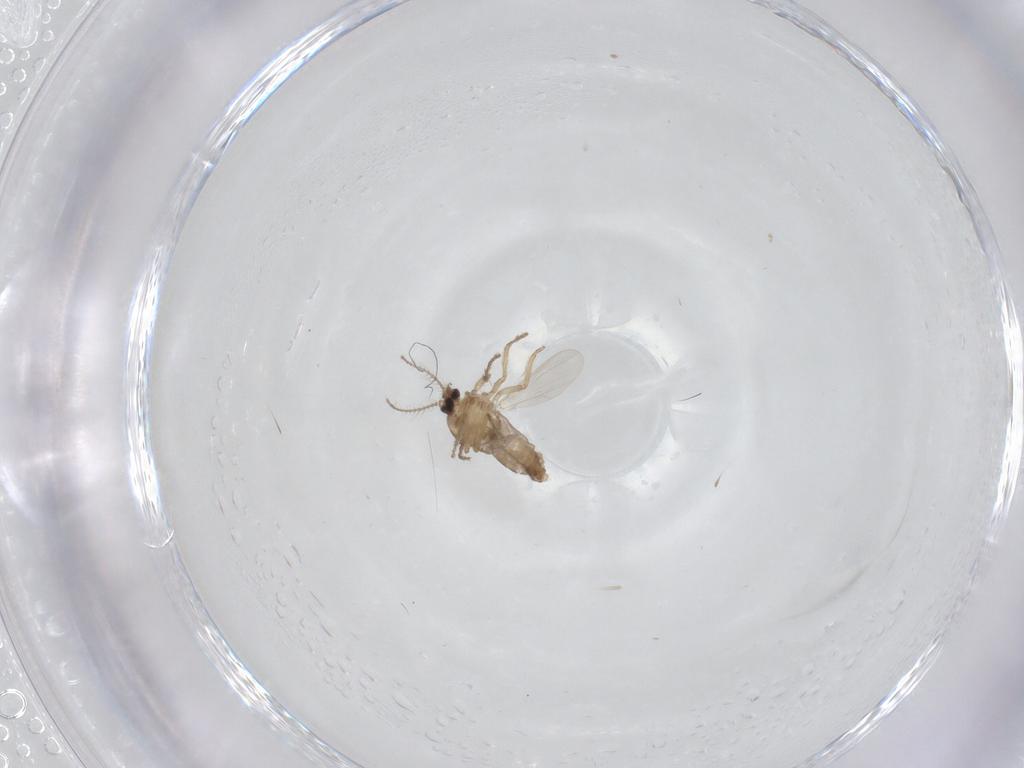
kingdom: Animalia
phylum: Arthropoda
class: Insecta
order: Diptera
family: Ceratopogonidae
